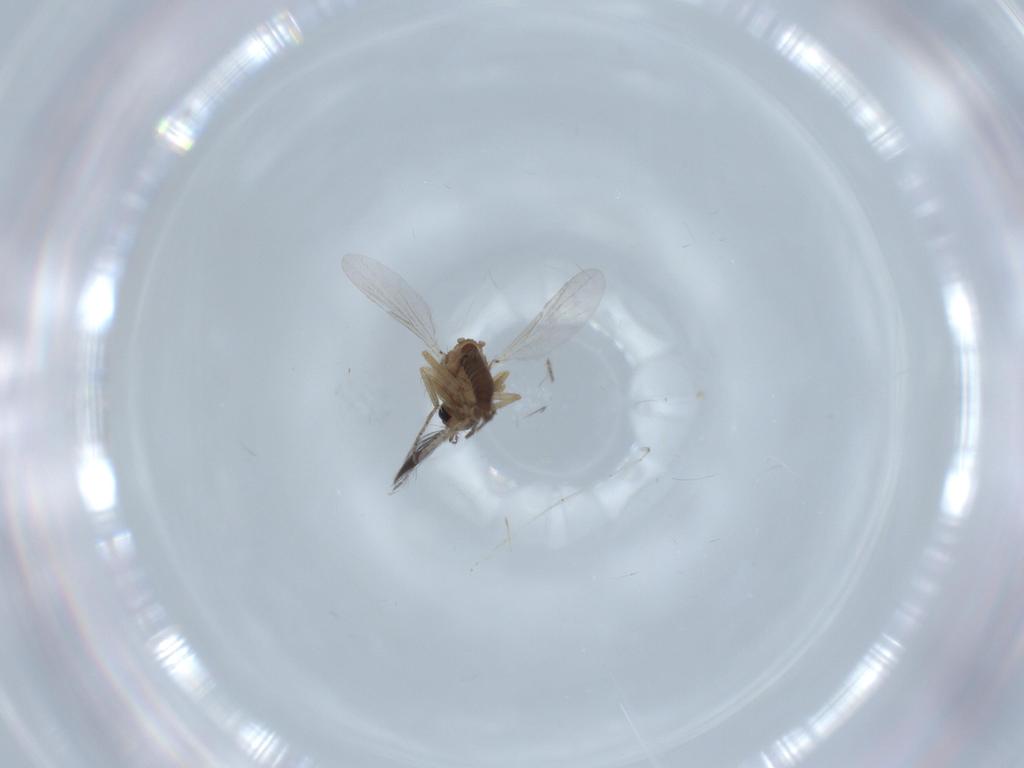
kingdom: Animalia
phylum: Arthropoda
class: Insecta
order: Diptera
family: Ceratopogonidae
